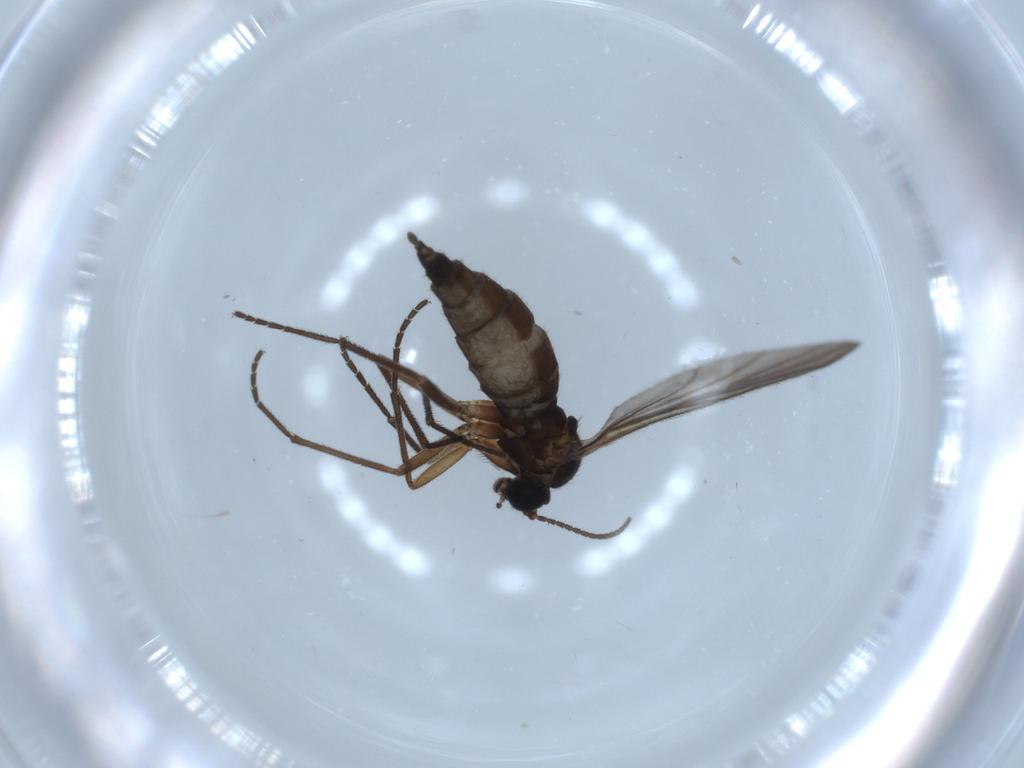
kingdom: Animalia
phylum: Arthropoda
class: Insecta
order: Diptera
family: Sciaridae
